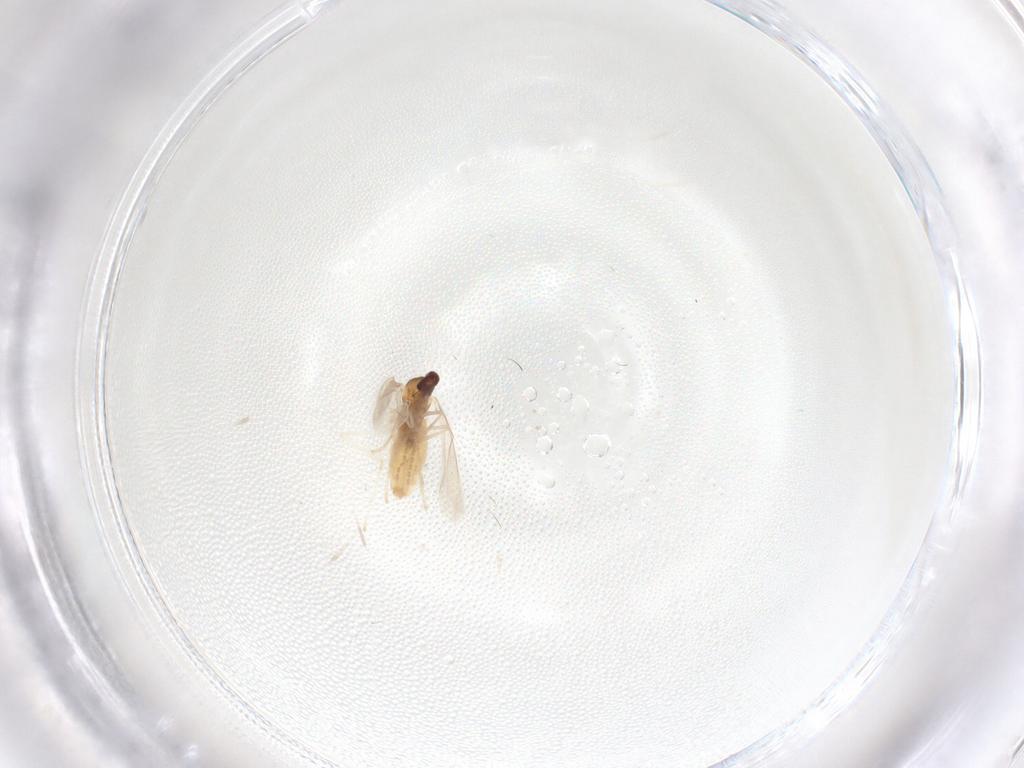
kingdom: Animalia
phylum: Arthropoda
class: Insecta
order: Diptera
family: Cecidomyiidae
